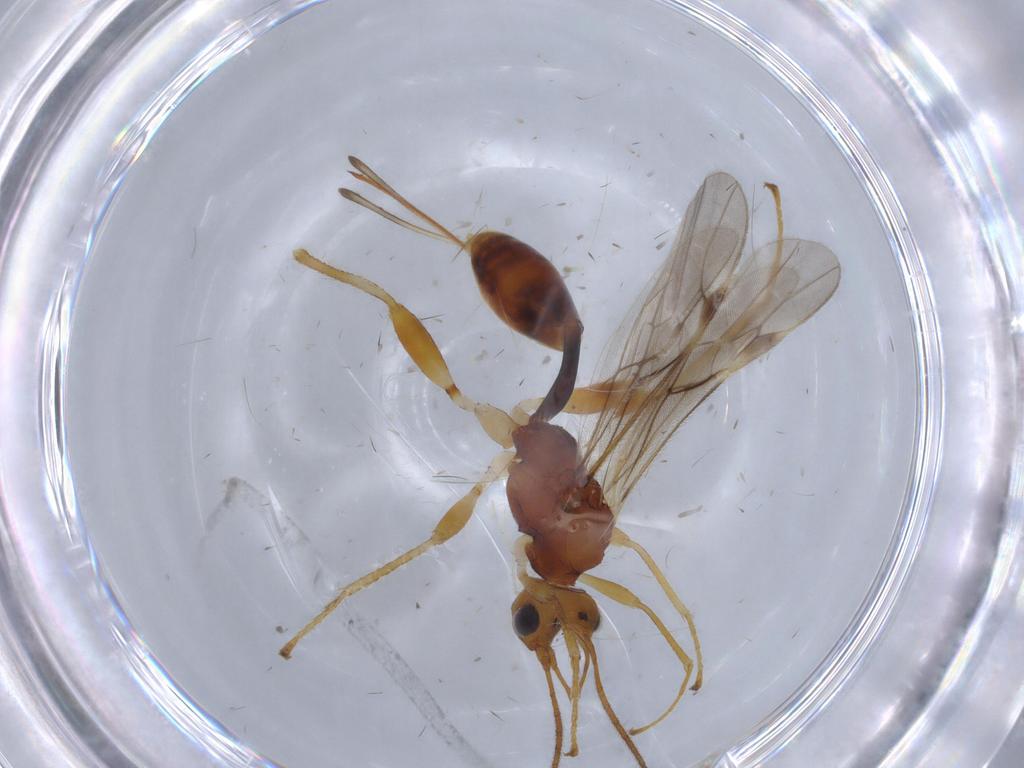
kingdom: Animalia
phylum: Arthropoda
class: Insecta
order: Hymenoptera
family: Braconidae
